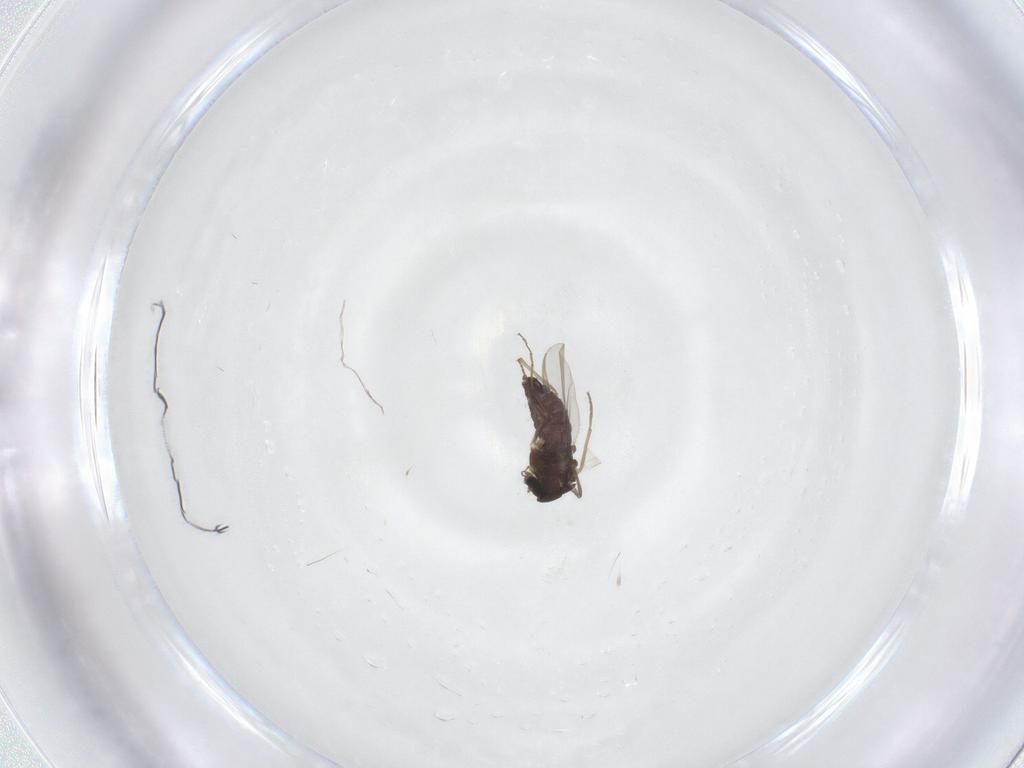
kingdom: Animalia
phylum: Arthropoda
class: Insecta
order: Diptera
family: Chironomidae
